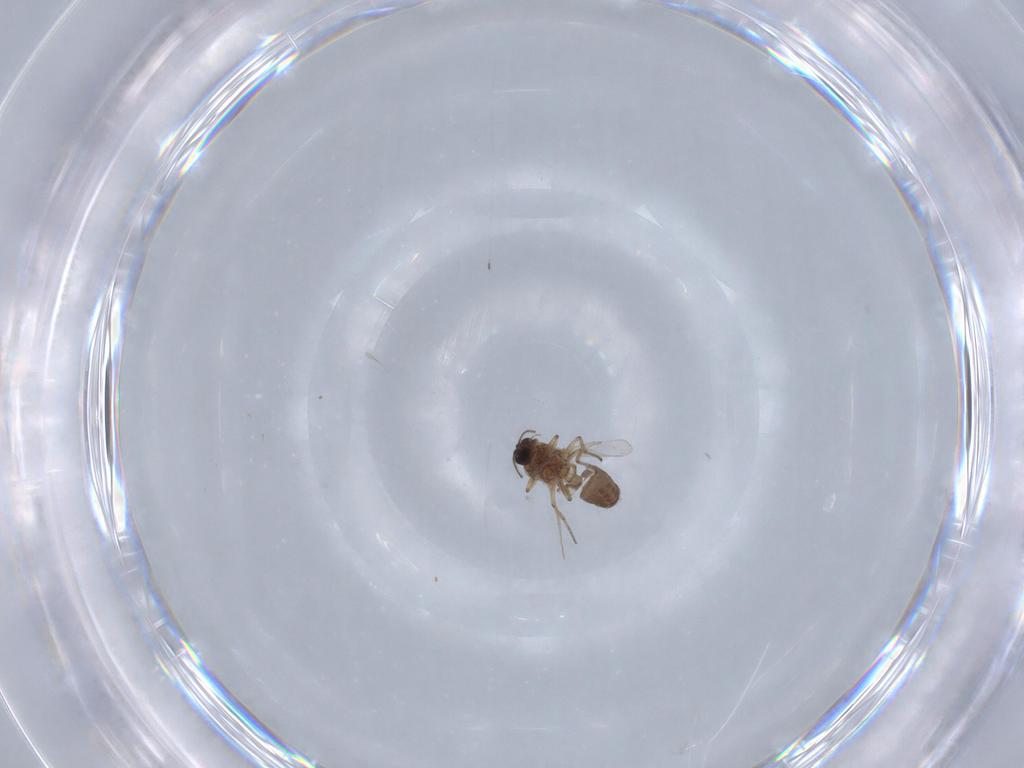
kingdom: Animalia
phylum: Arthropoda
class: Insecta
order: Diptera
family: Ceratopogonidae
